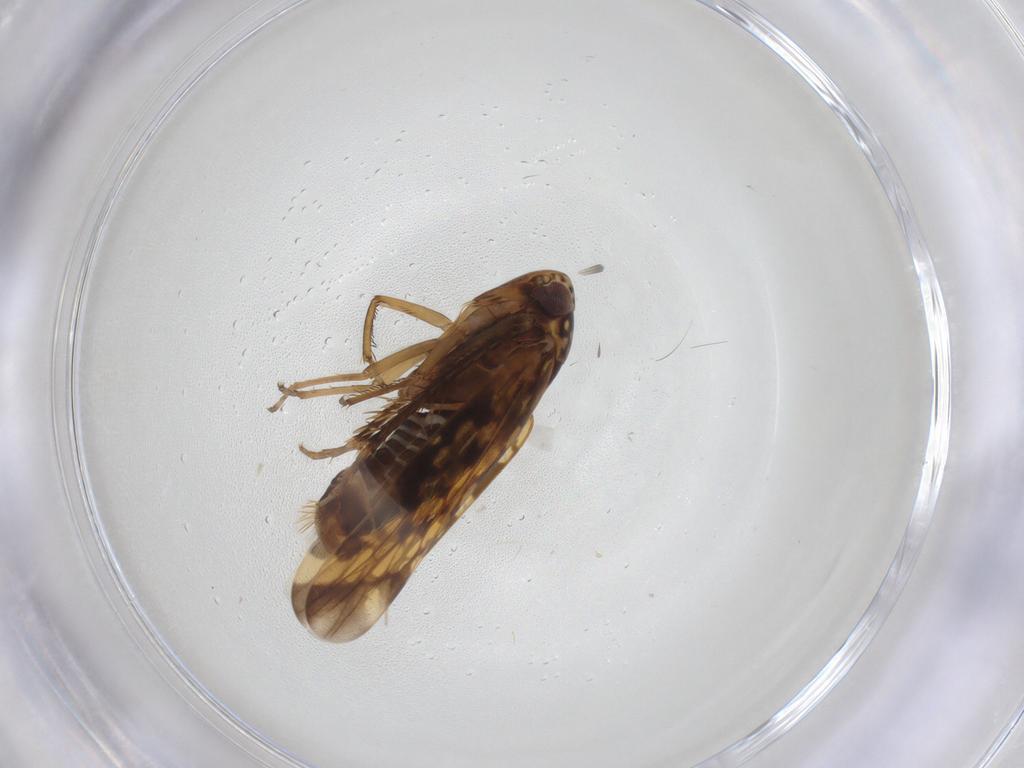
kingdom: Animalia
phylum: Arthropoda
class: Insecta
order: Hemiptera
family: Cicadellidae
